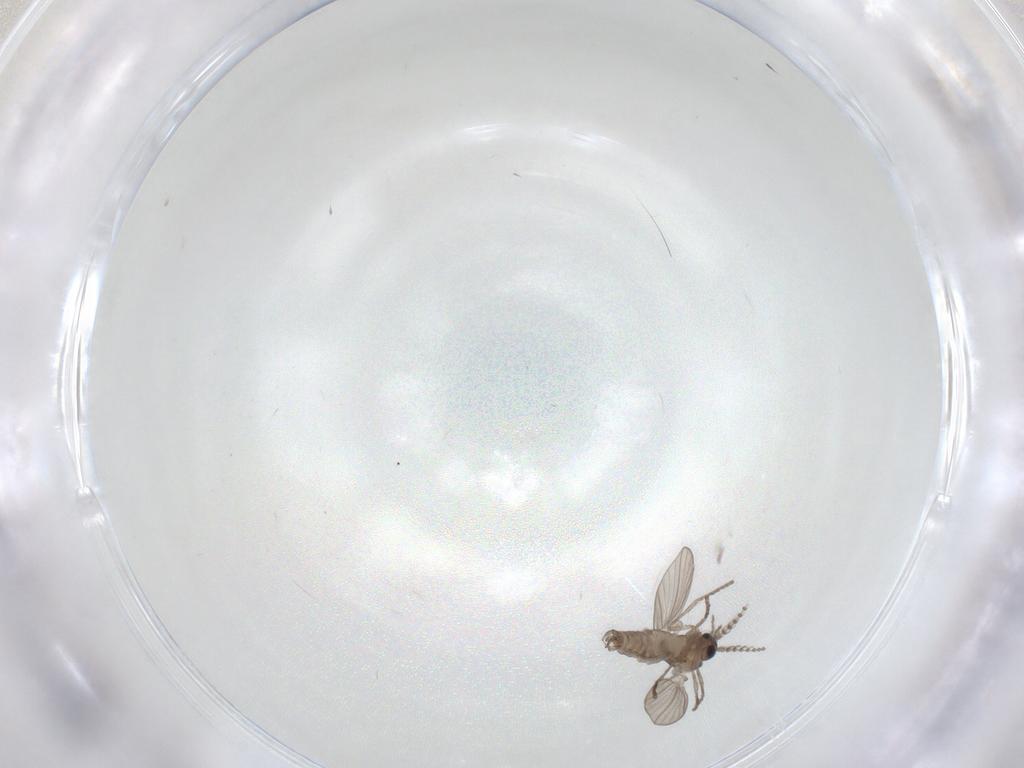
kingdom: Animalia
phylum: Arthropoda
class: Insecta
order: Diptera
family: Psychodidae
